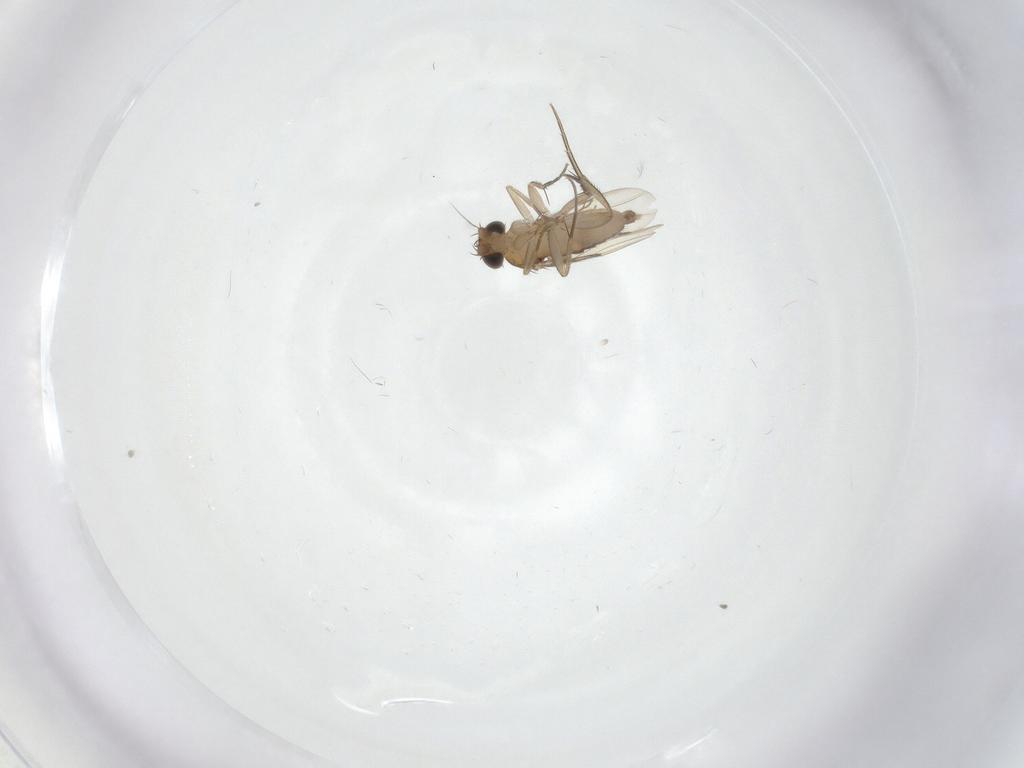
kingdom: Animalia
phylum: Arthropoda
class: Insecta
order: Diptera
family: Phoridae
